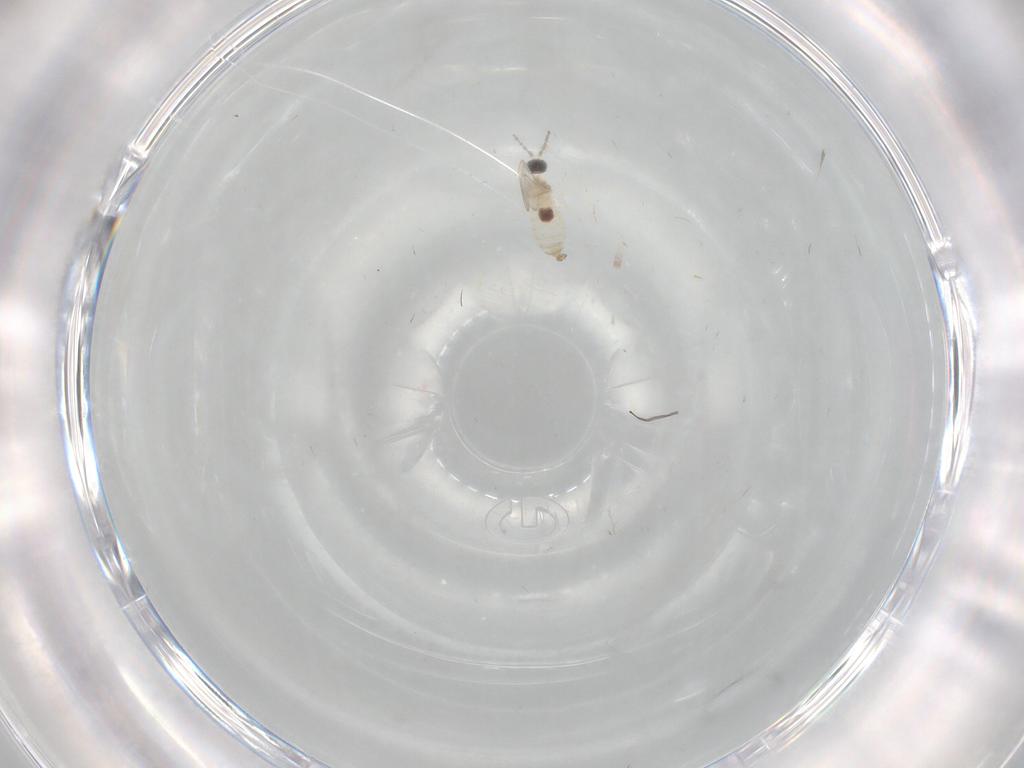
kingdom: Animalia
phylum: Arthropoda
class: Insecta
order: Diptera
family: Cecidomyiidae
